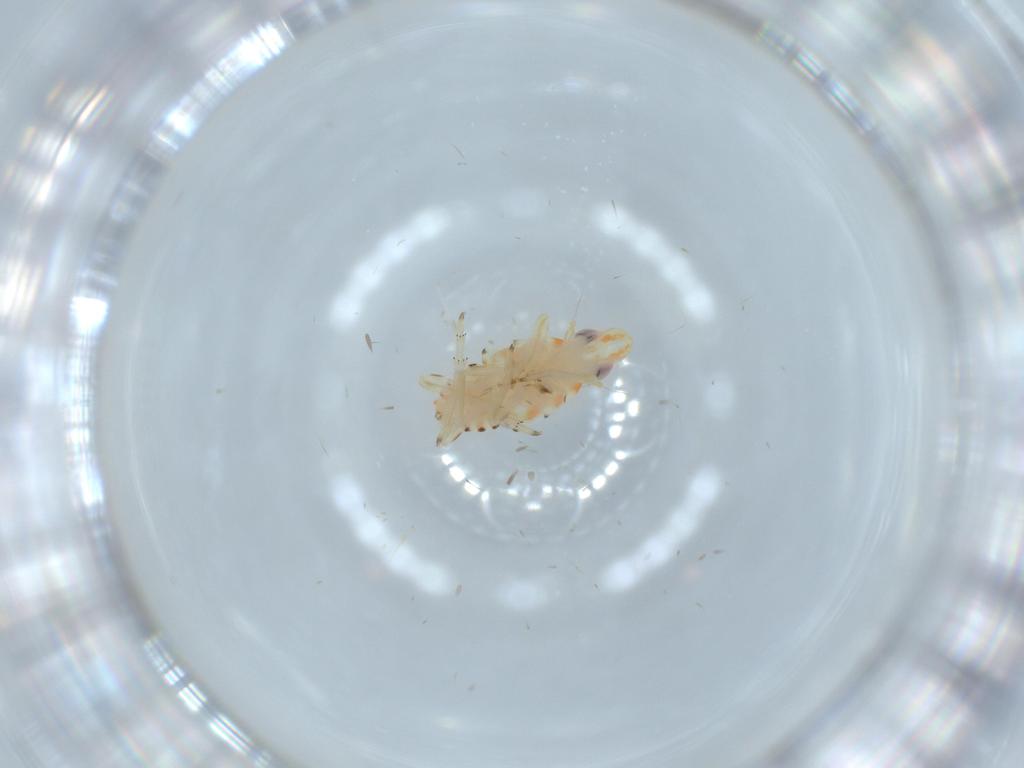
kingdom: Animalia
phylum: Arthropoda
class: Insecta
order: Hemiptera
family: Tropiduchidae
